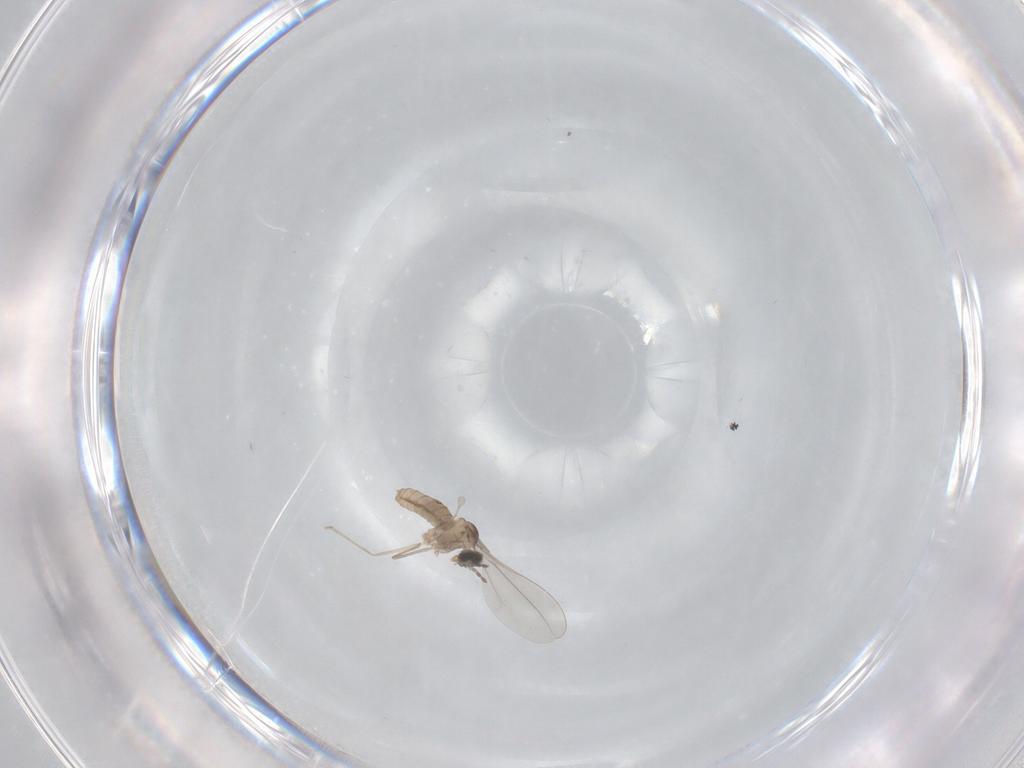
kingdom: Animalia
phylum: Arthropoda
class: Insecta
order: Diptera
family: Cecidomyiidae
